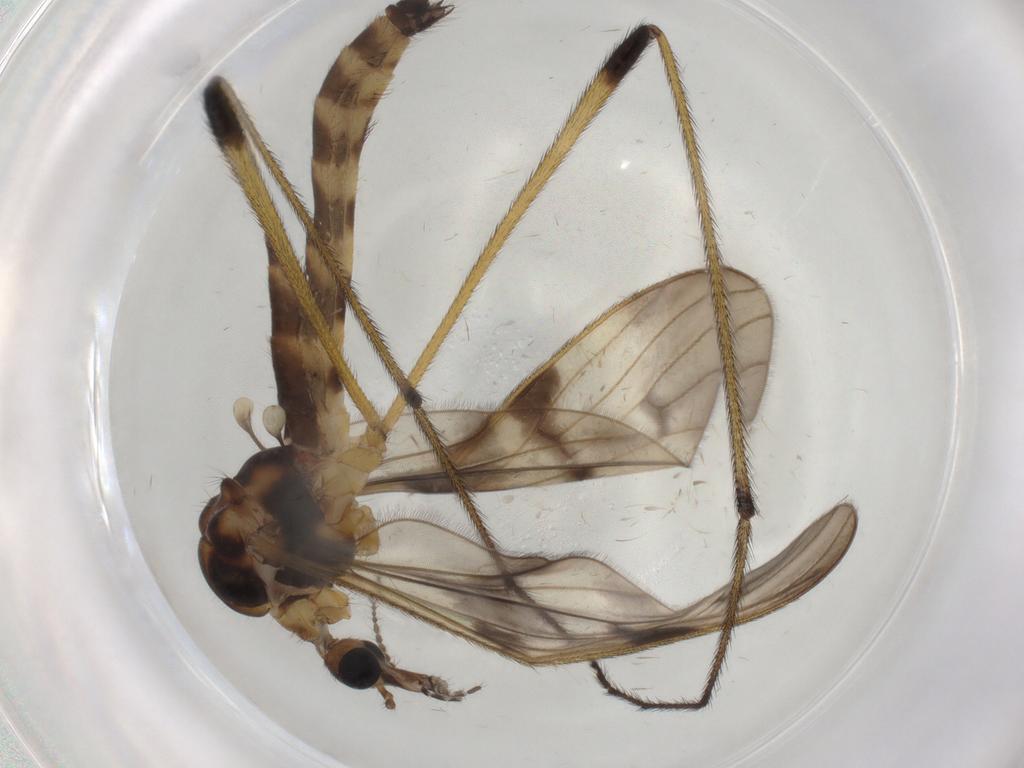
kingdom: Animalia
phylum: Arthropoda
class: Insecta
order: Diptera
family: Limoniidae
